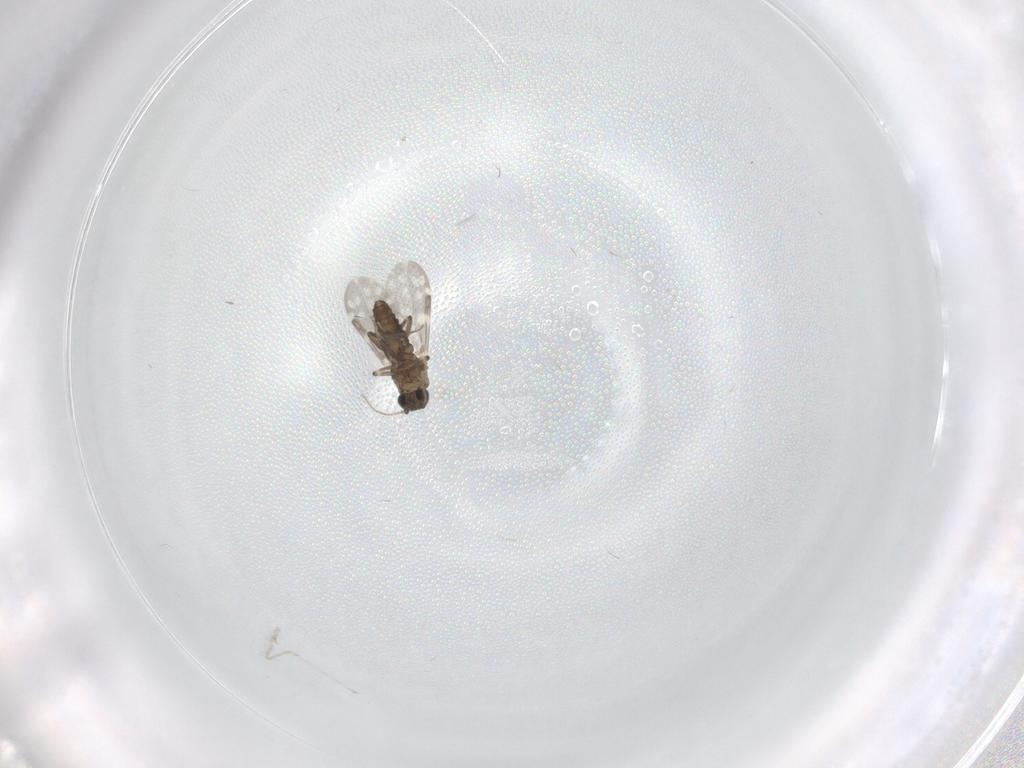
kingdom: Animalia
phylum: Arthropoda
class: Insecta
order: Diptera
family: Ceratopogonidae
